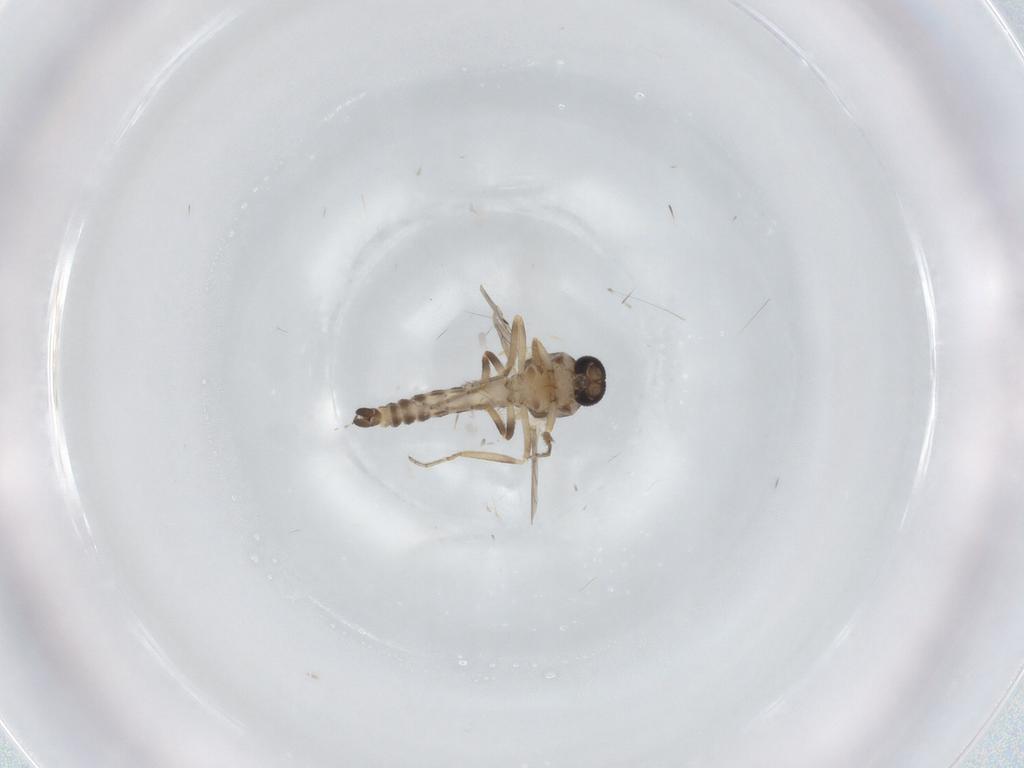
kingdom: Animalia
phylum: Arthropoda
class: Insecta
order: Diptera
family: Ceratopogonidae
